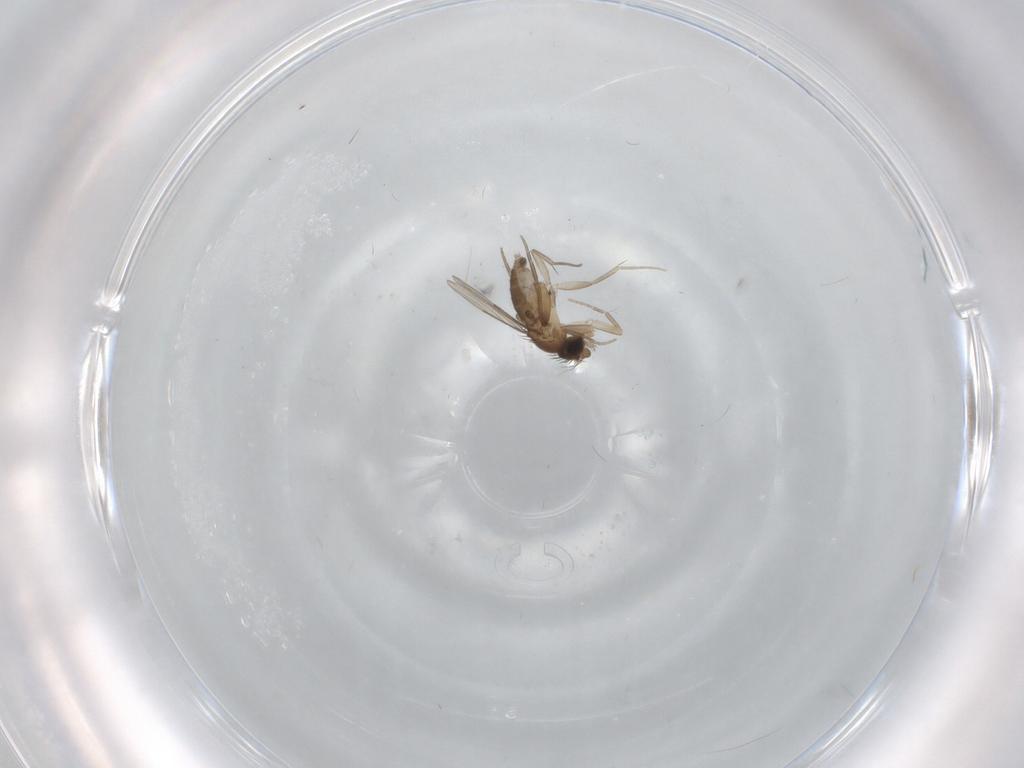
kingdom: Animalia
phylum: Arthropoda
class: Insecta
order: Diptera
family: Phoridae
